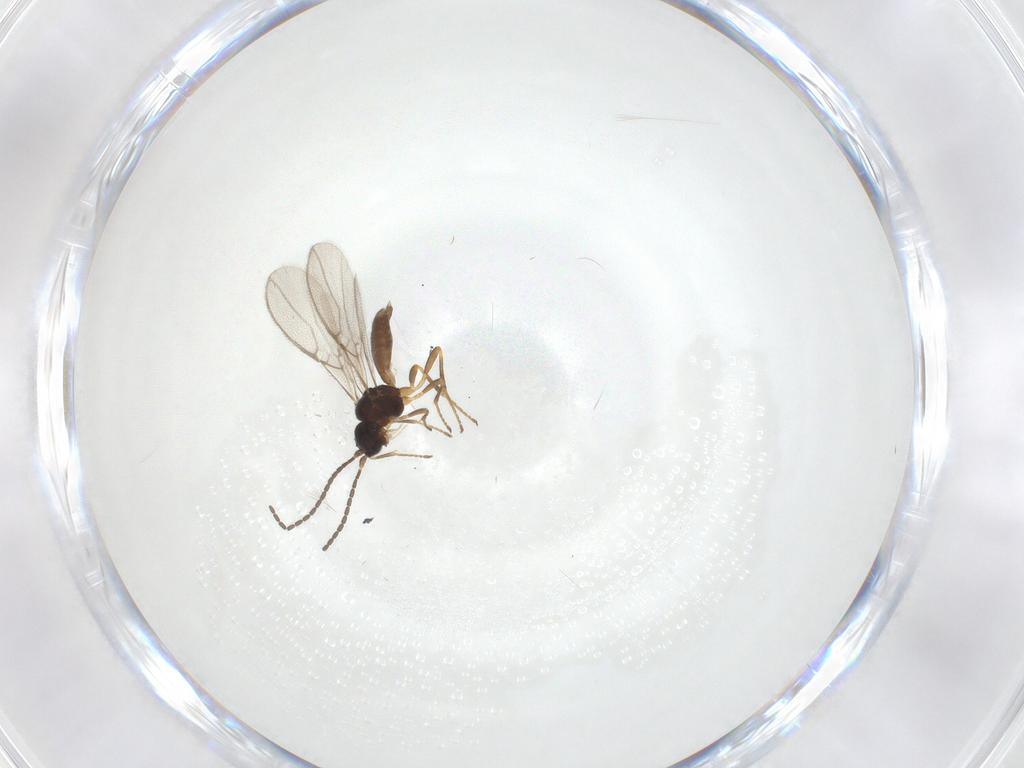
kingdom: Animalia
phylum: Arthropoda
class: Insecta
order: Hymenoptera
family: Braconidae
